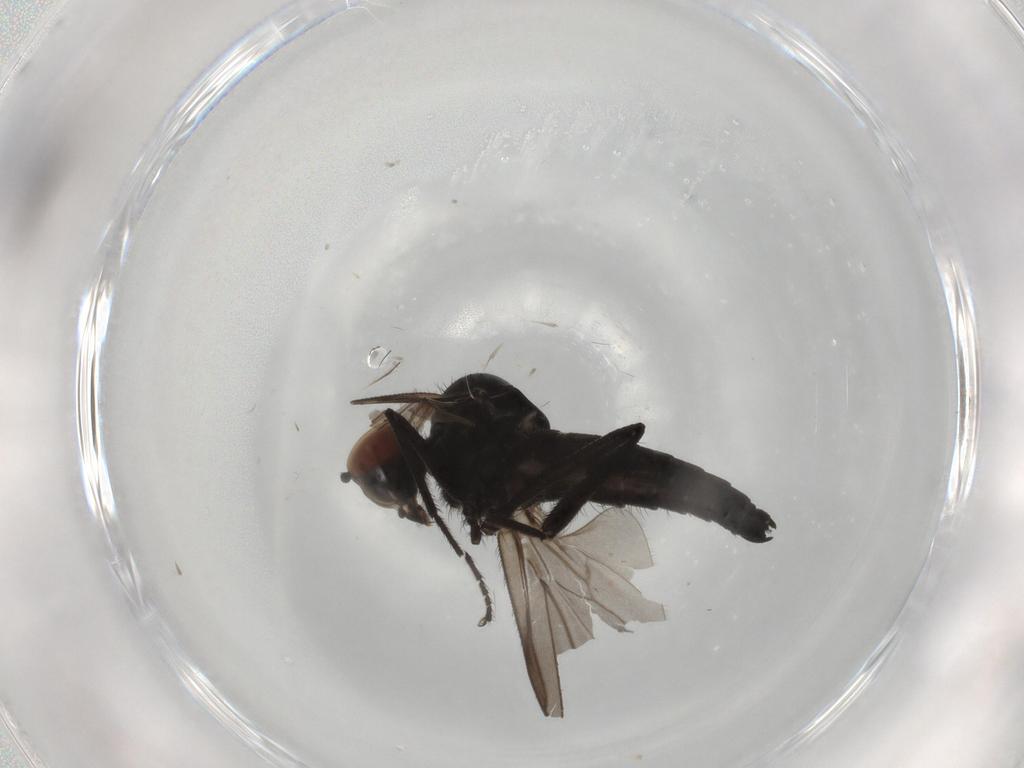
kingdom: Animalia
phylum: Arthropoda
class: Insecta
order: Diptera
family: Hybotidae
